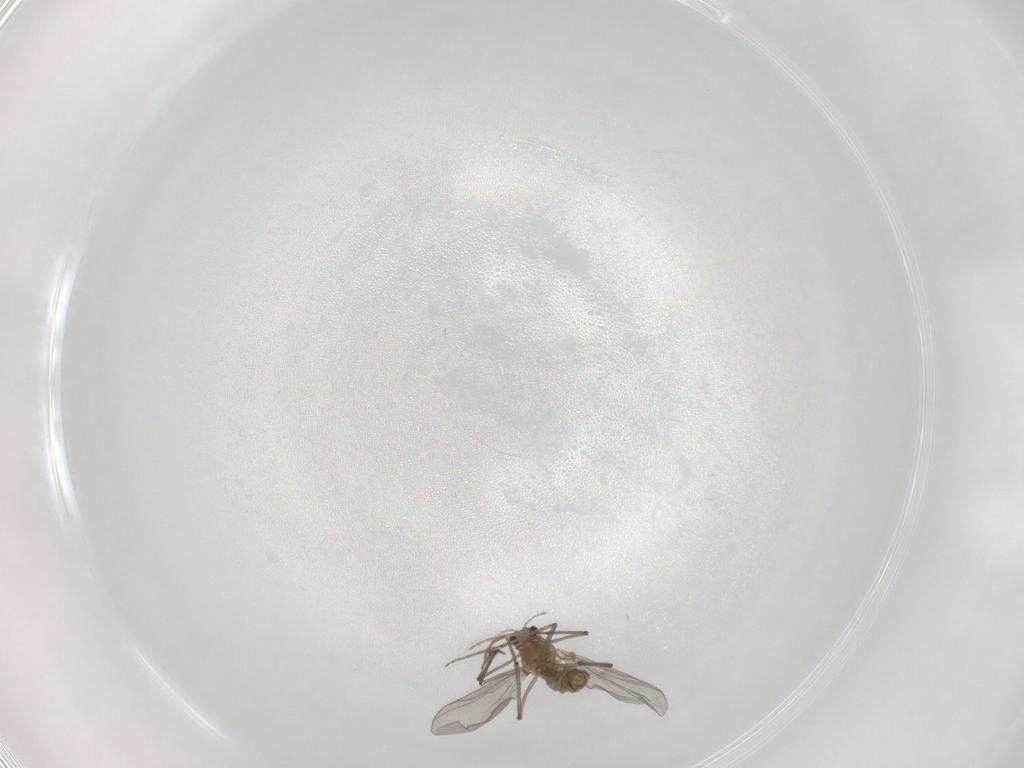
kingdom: Animalia
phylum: Arthropoda
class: Insecta
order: Diptera
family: Chironomidae
